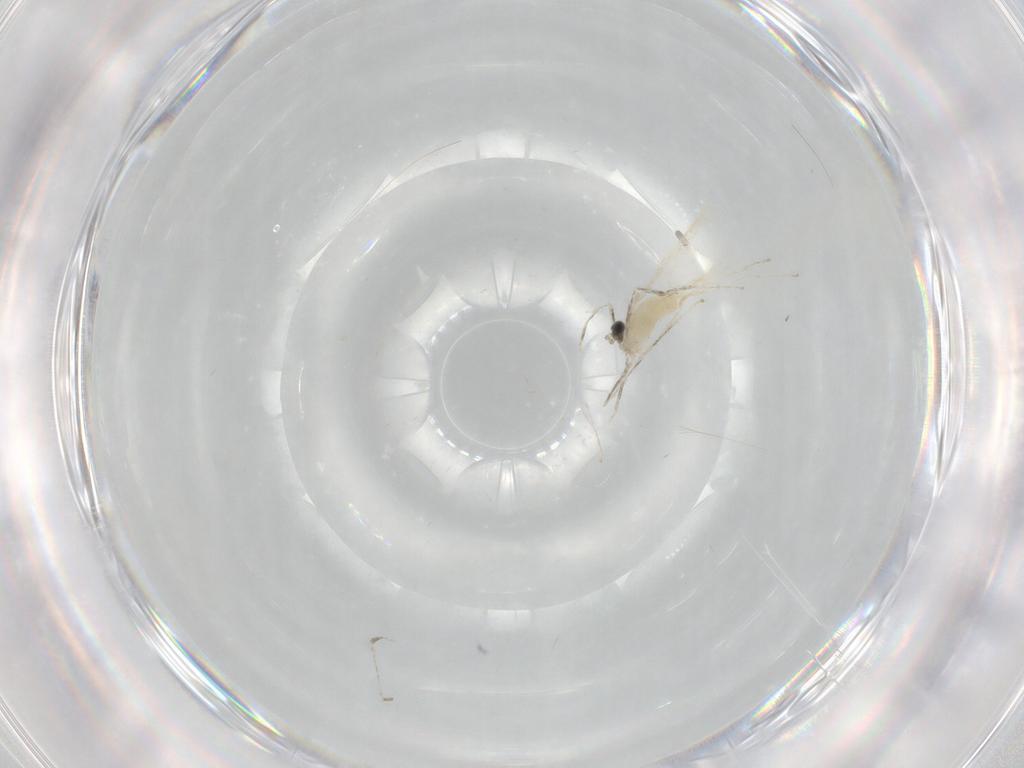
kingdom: Animalia
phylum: Arthropoda
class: Insecta
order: Diptera
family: Cecidomyiidae
